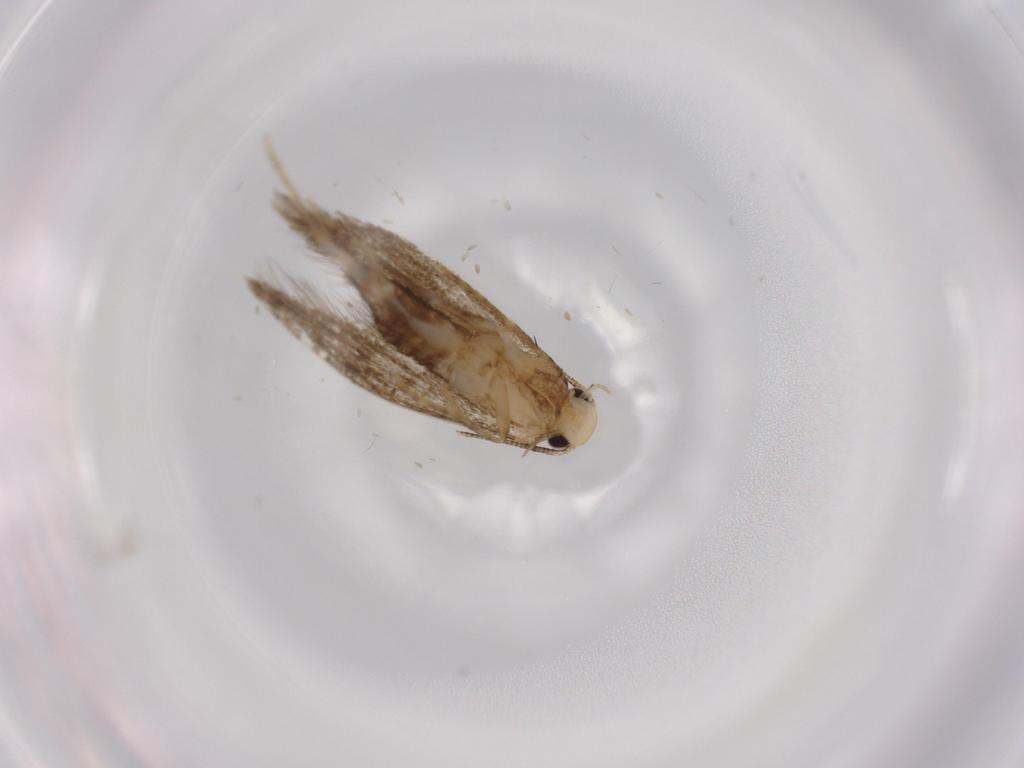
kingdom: Animalia
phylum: Arthropoda
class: Insecta
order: Lepidoptera
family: Tineidae
